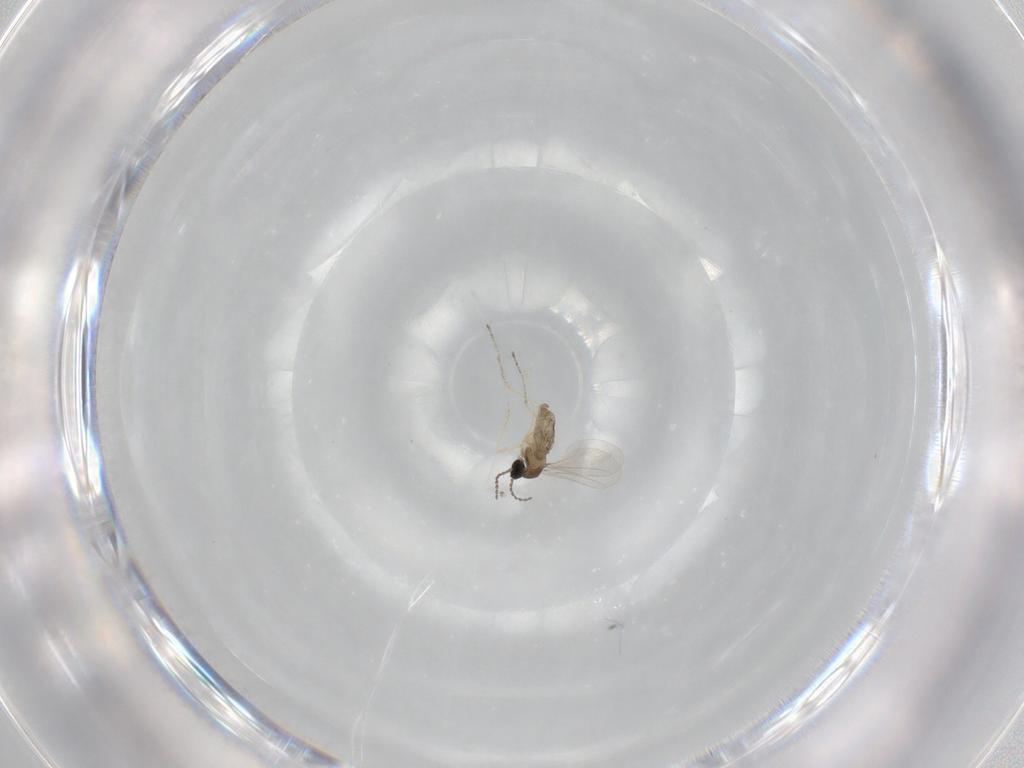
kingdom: Animalia
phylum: Arthropoda
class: Insecta
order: Diptera
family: Cecidomyiidae
